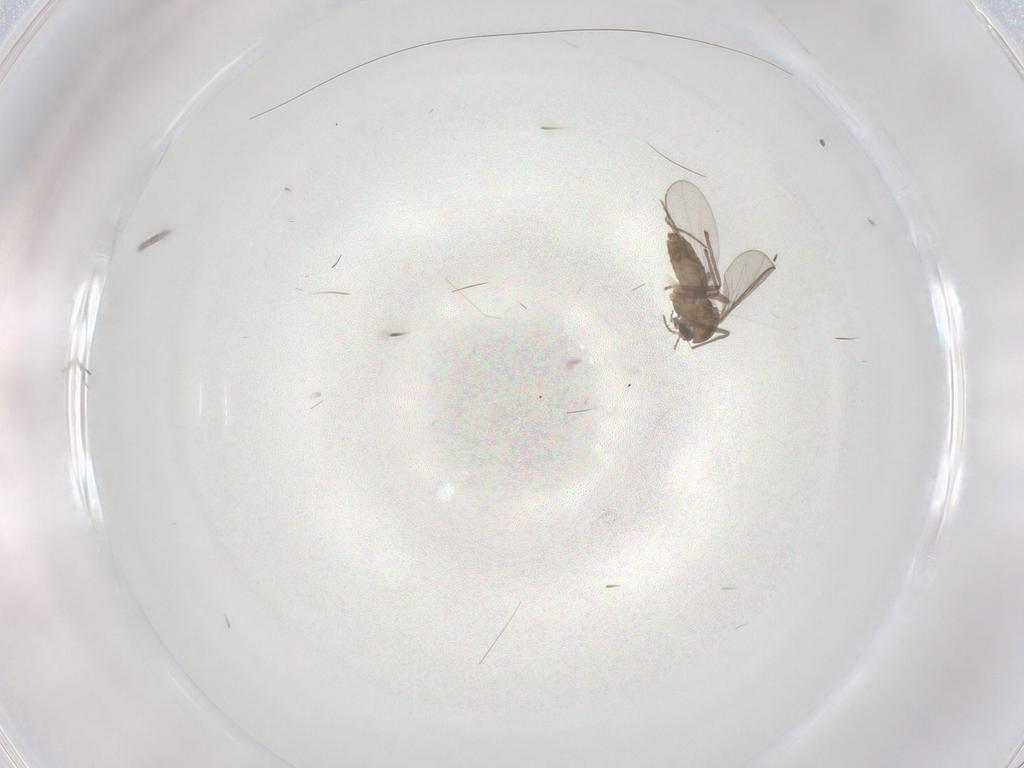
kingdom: Animalia
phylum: Arthropoda
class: Insecta
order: Diptera
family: Chironomidae
